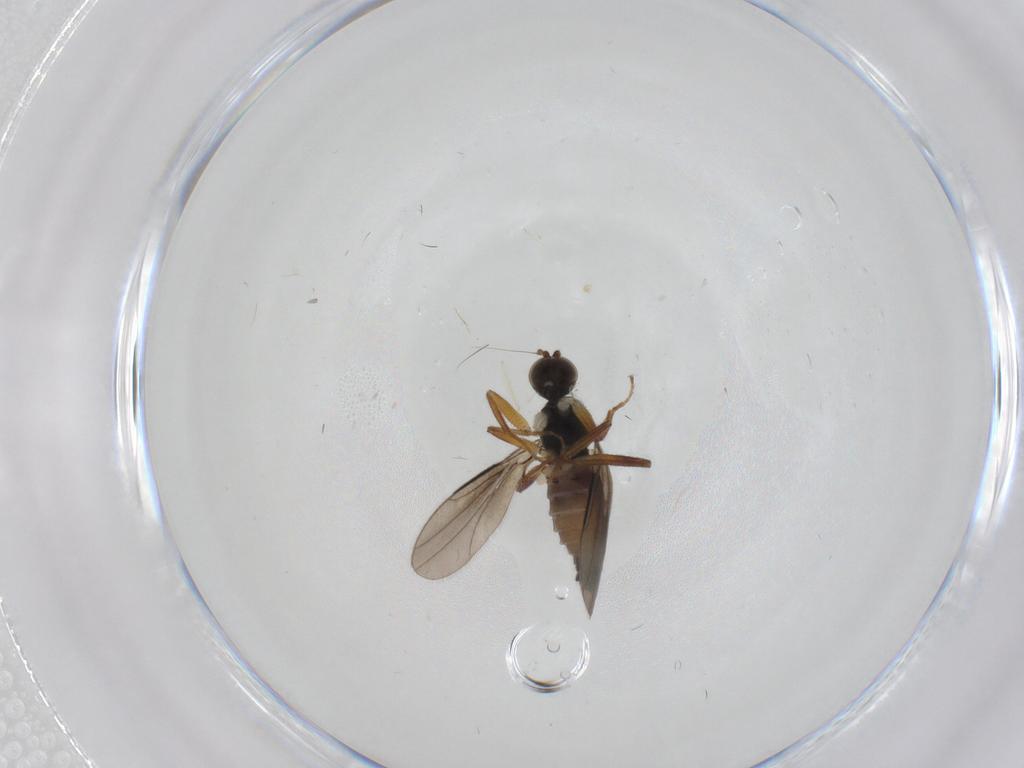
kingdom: Animalia
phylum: Arthropoda
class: Insecta
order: Diptera
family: Hybotidae
